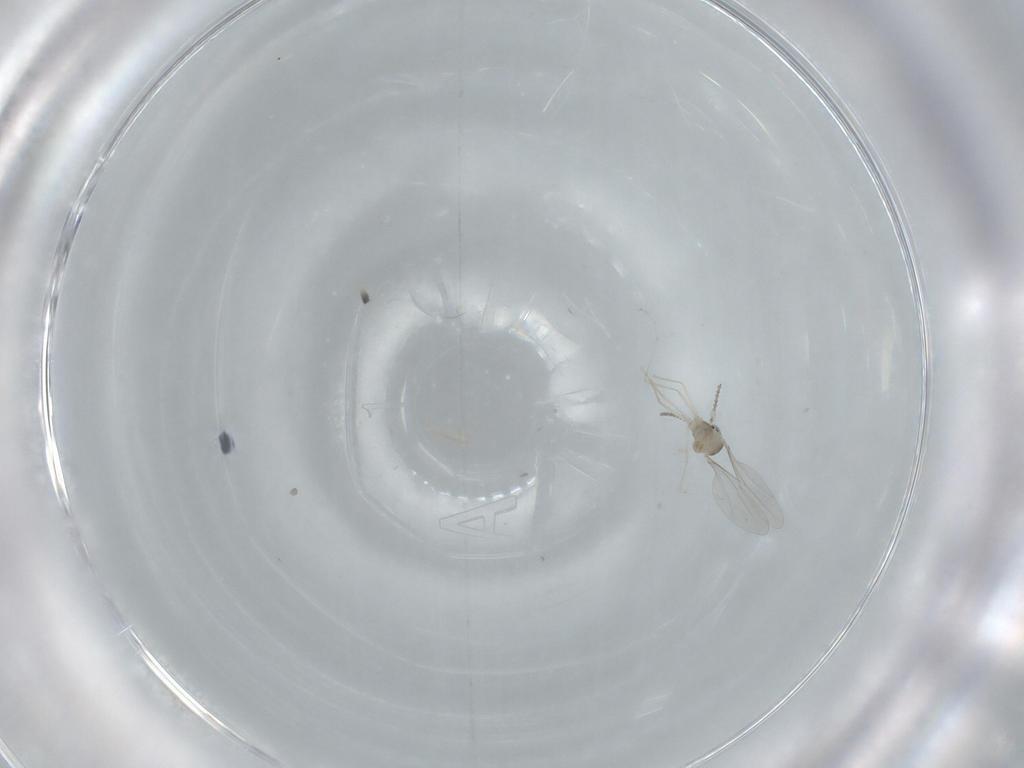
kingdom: Animalia
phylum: Arthropoda
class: Insecta
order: Diptera
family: Cecidomyiidae
